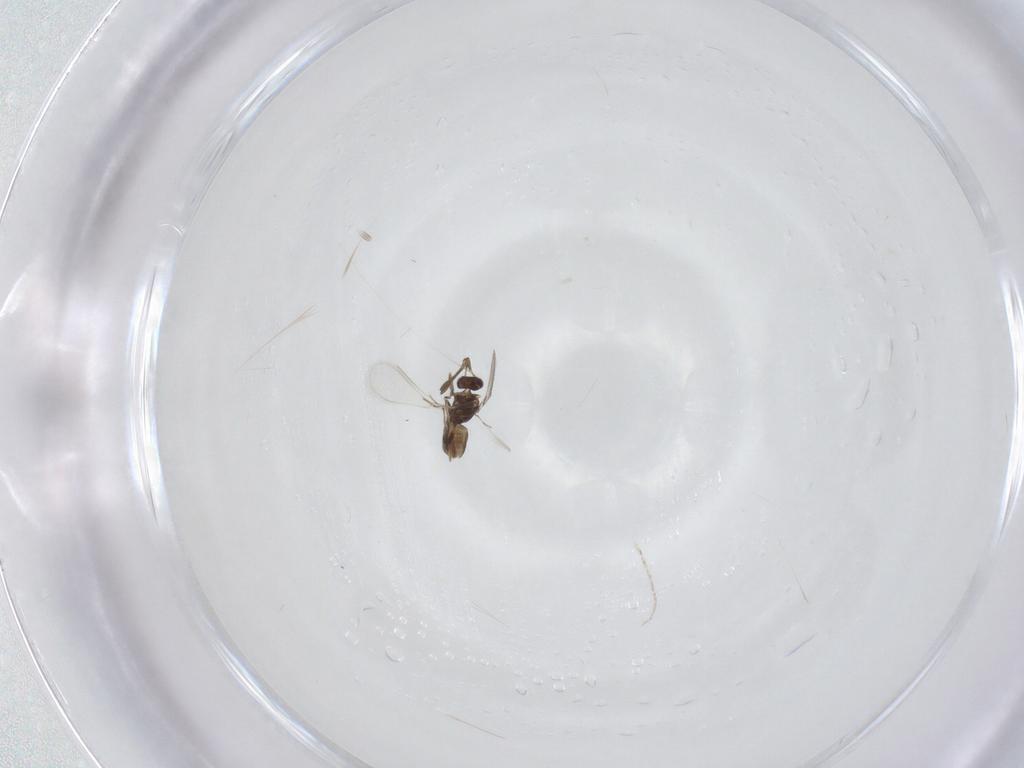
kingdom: Animalia
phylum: Arthropoda
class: Insecta
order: Hymenoptera
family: Mymaridae
